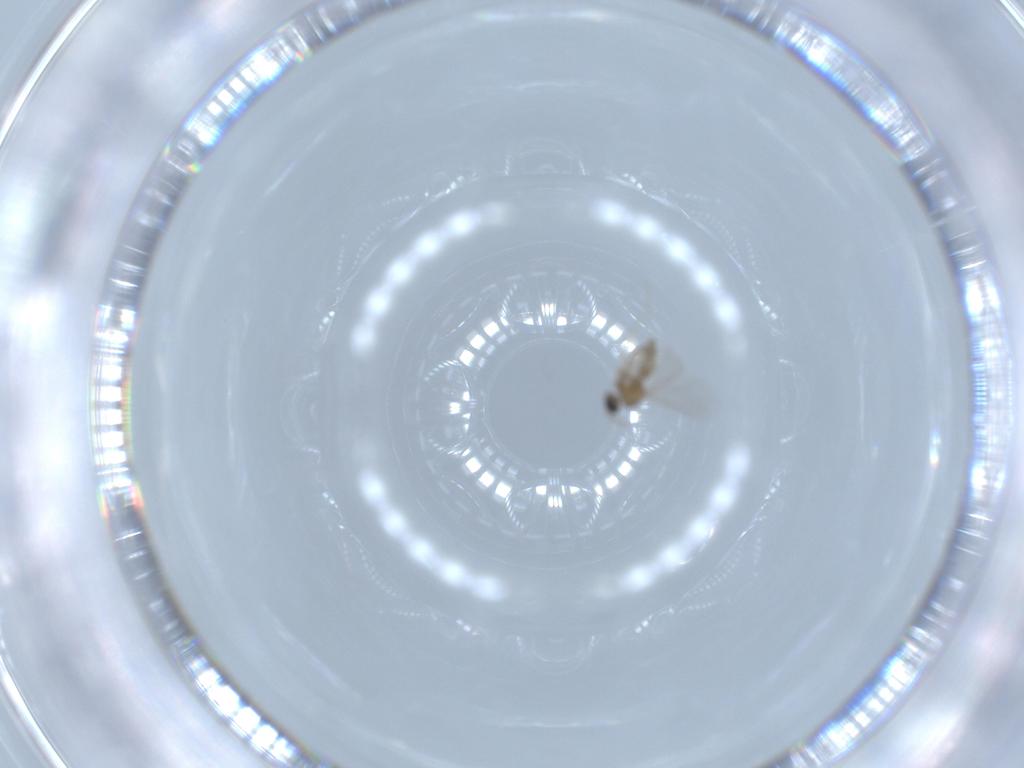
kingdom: Animalia
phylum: Arthropoda
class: Insecta
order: Diptera
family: Cecidomyiidae
